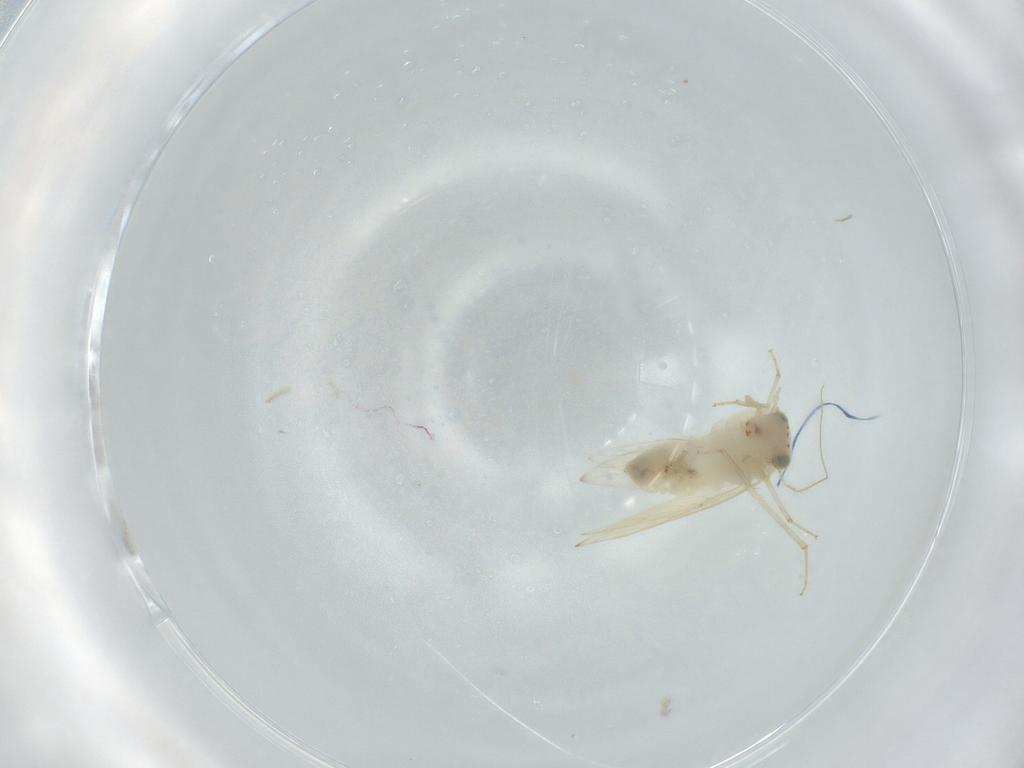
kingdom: Animalia
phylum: Arthropoda
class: Insecta
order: Psocodea
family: Lepidopsocidae
